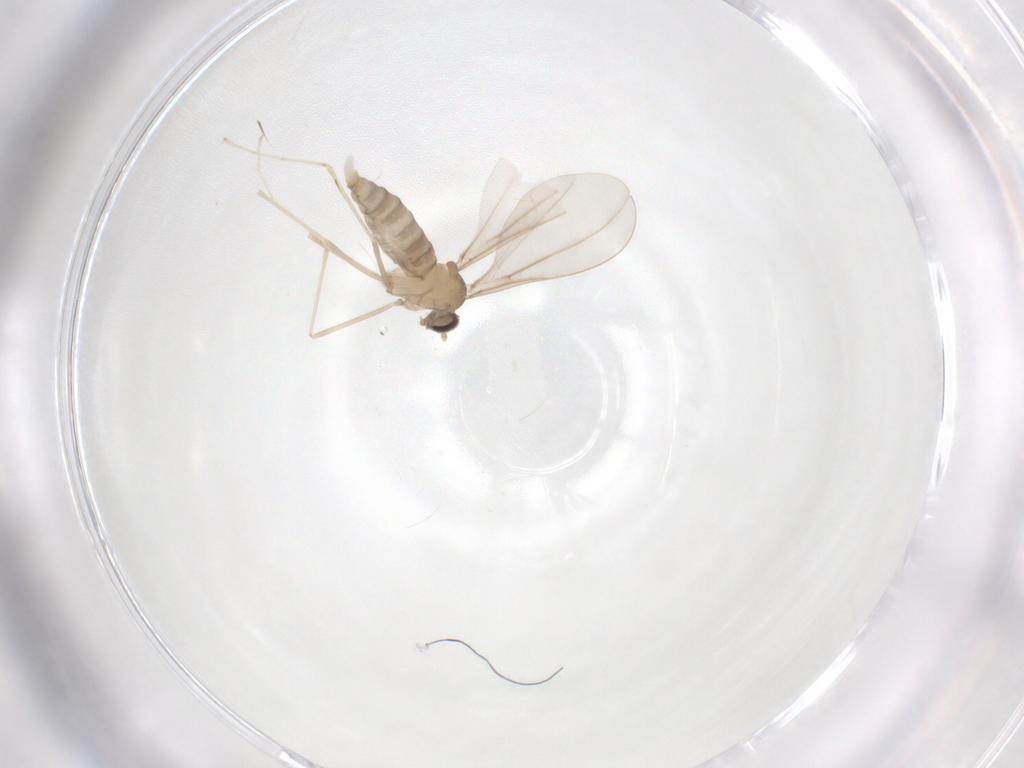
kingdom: Animalia
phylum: Arthropoda
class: Insecta
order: Diptera
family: Cecidomyiidae
